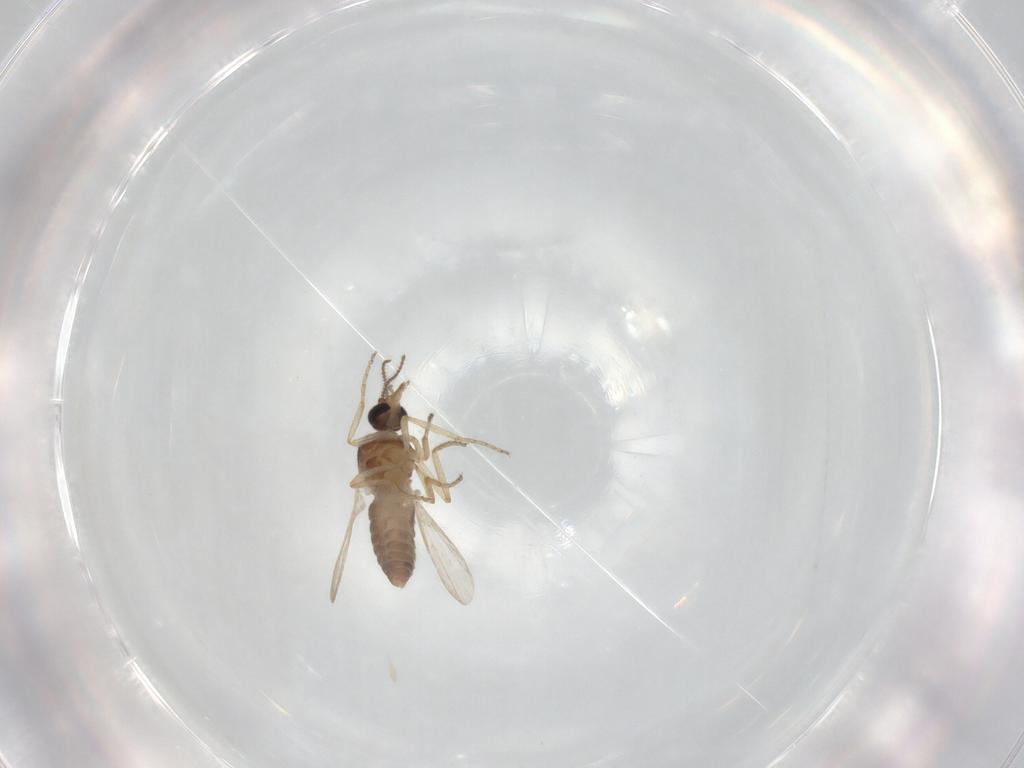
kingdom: Animalia
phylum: Arthropoda
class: Insecta
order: Diptera
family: Ceratopogonidae
